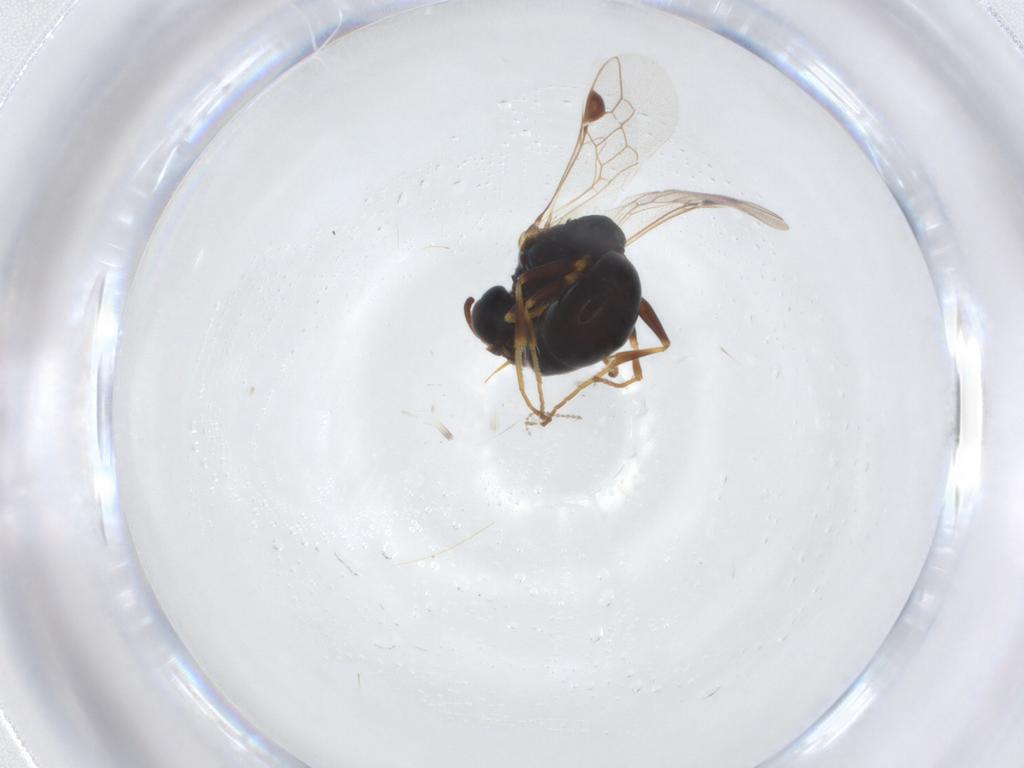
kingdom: Animalia
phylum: Arthropoda
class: Insecta
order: Hymenoptera
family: Pemphredonidae
